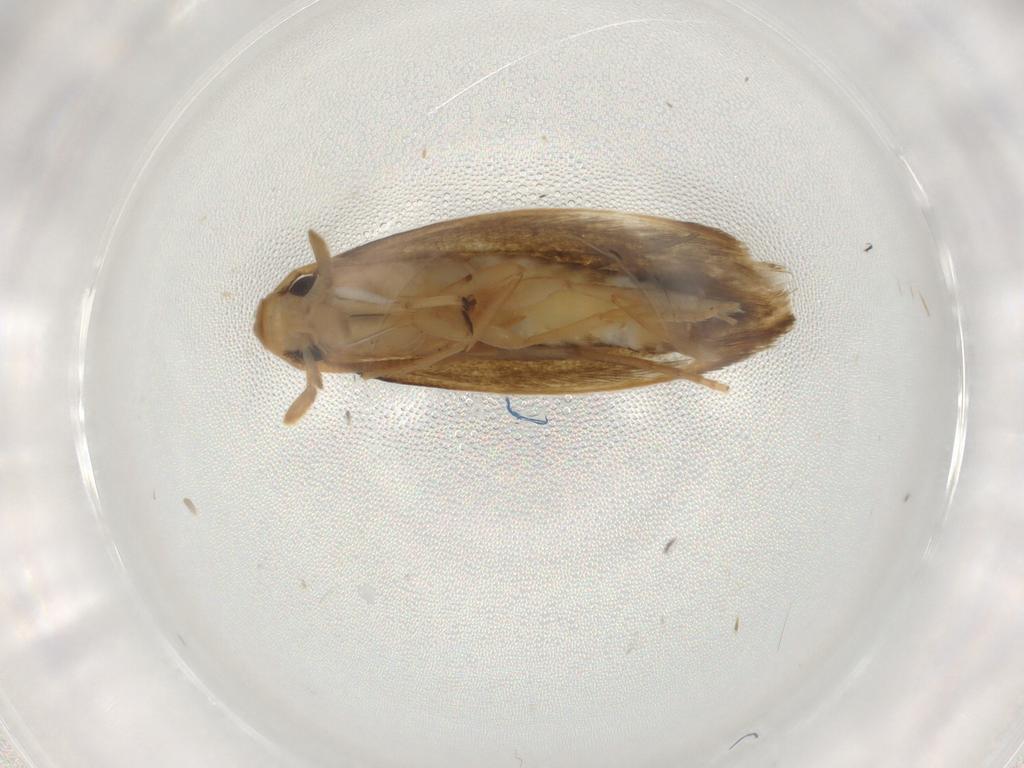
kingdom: Animalia
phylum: Arthropoda
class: Insecta
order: Lepidoptera
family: Tineidae
